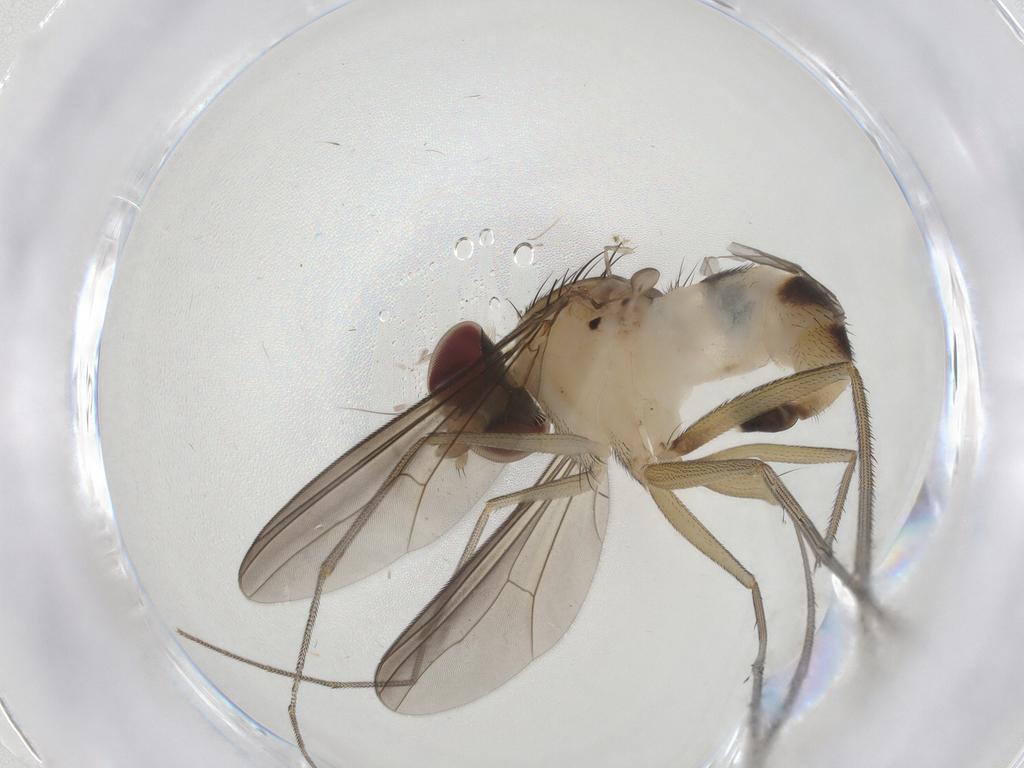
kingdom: Animalia
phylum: Arthropoda
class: Insecta
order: Diptera
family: Dolichopodidae
